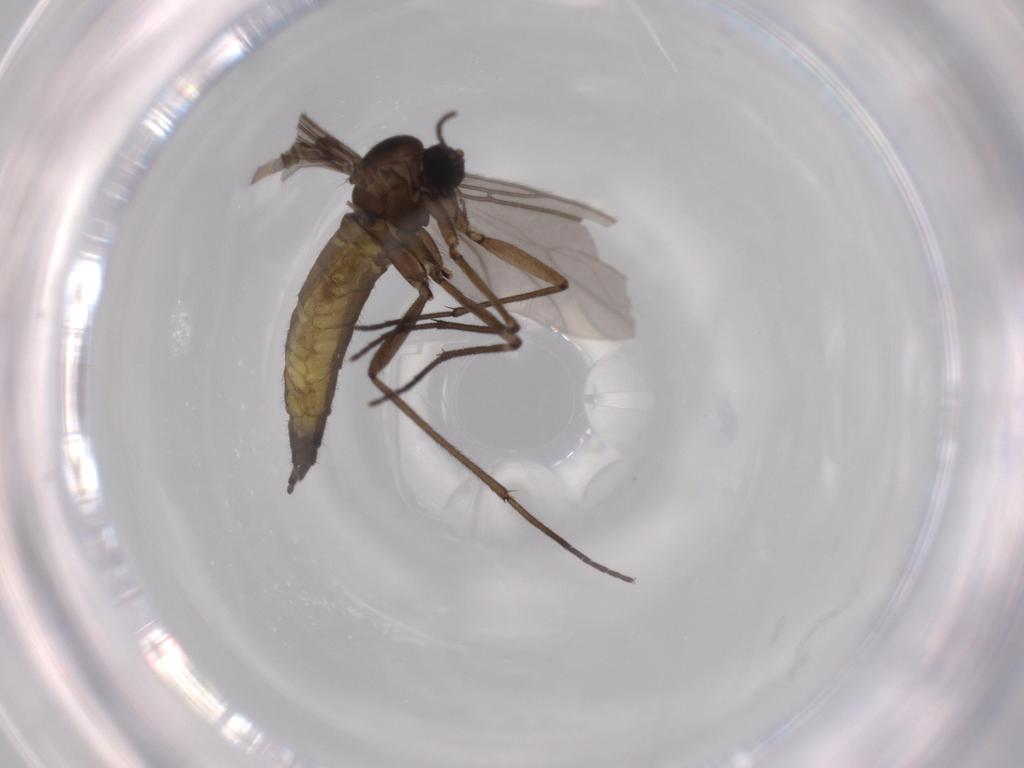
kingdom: Animalia
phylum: Arthropoda
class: Insecta
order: Diptera
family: Sciaridae
